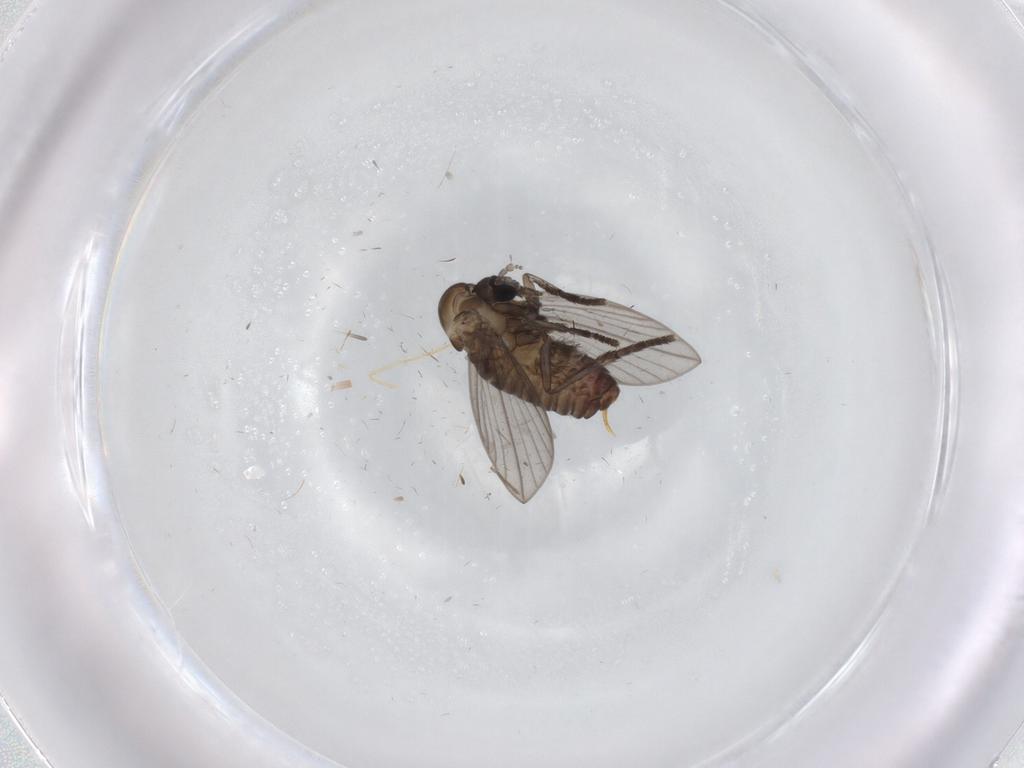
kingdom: Animalia
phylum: Arthropoda
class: Insecta
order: Diptera
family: Psychodidae
